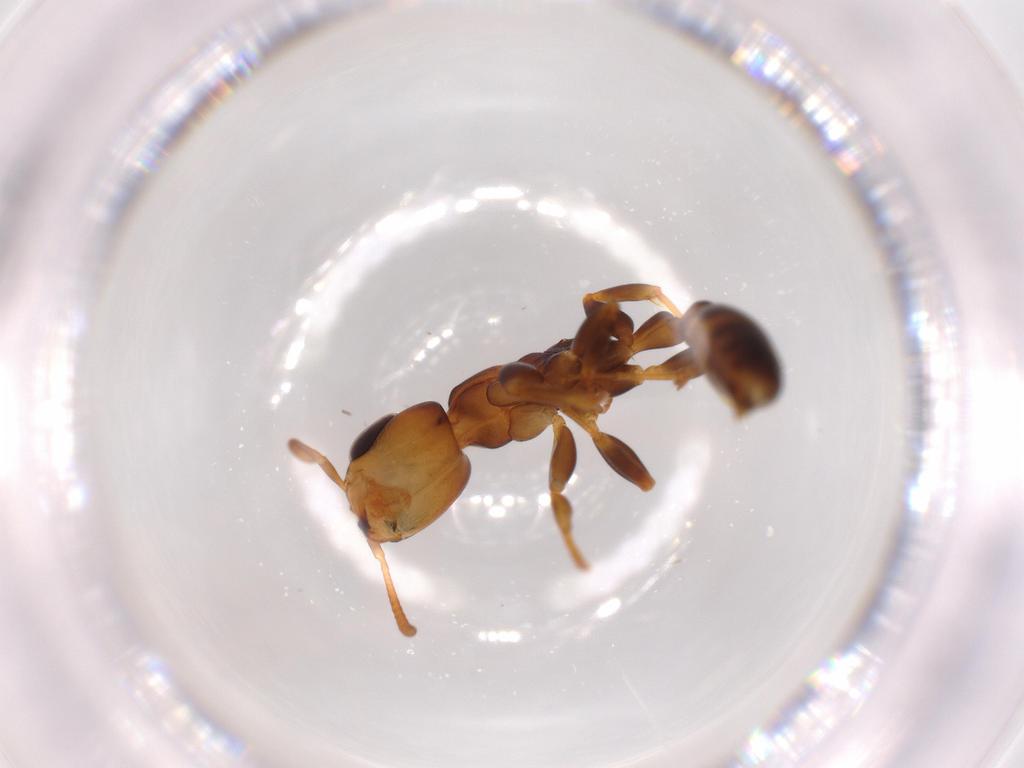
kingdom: Animalia
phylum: Arthropoda
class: Insecta
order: Hymenoptera
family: Formicidae
